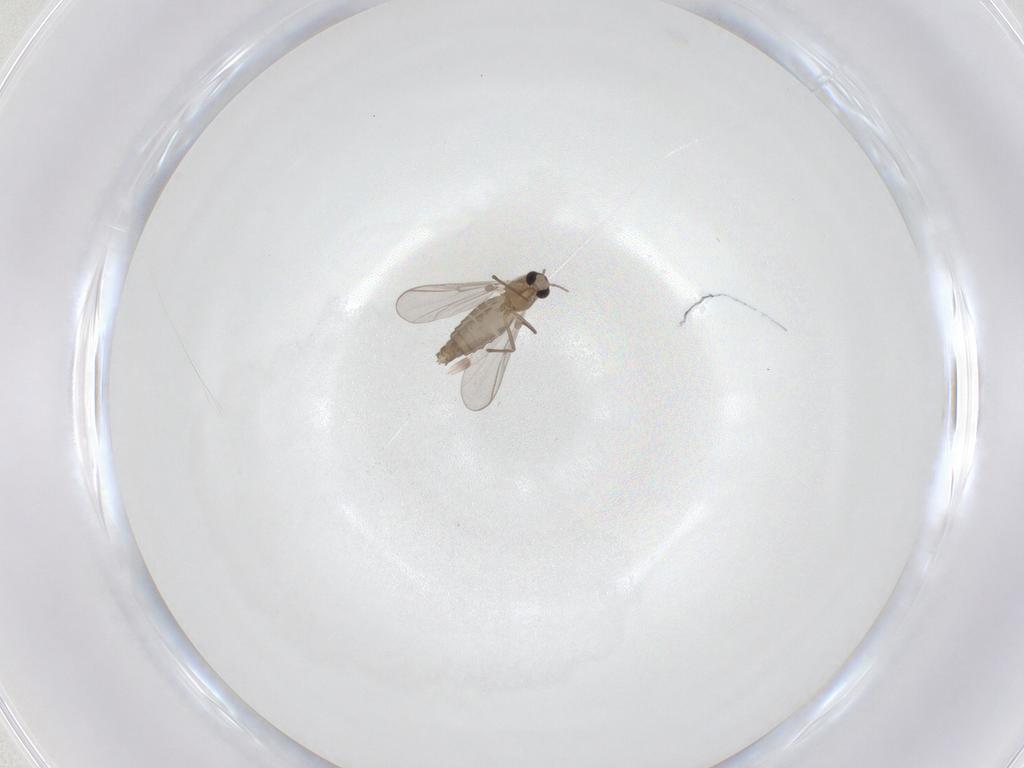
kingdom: Animalia
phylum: Arthropoda
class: Insecta
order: Diptera
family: Chironomidae
